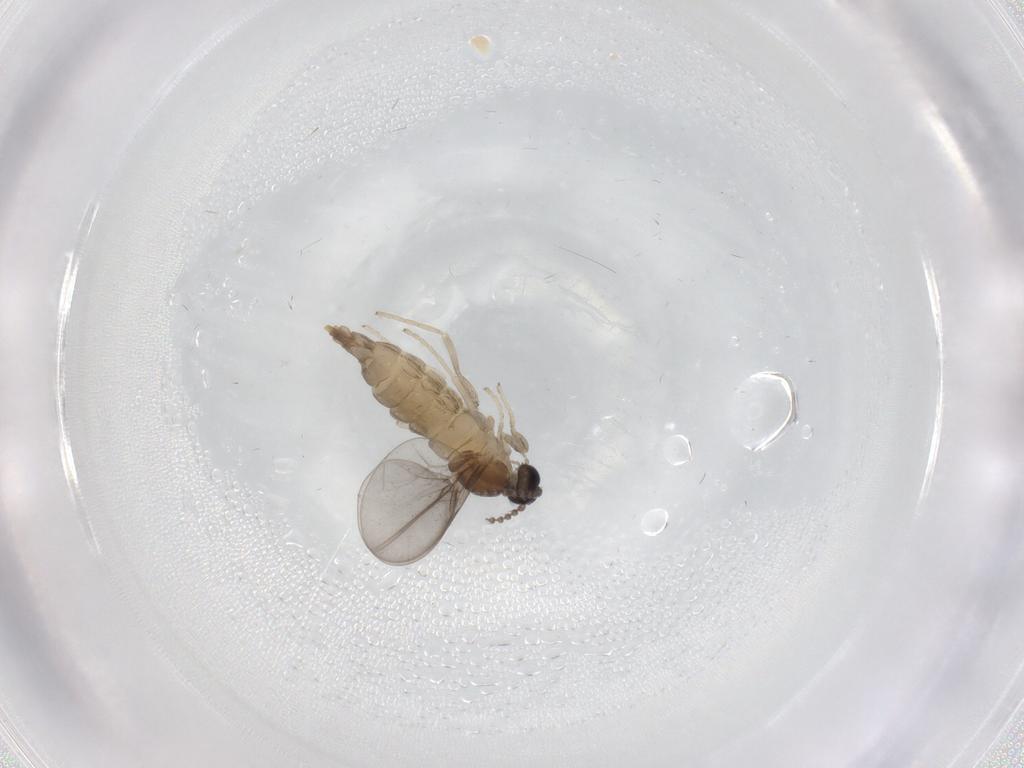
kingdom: Animalia
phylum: Arthropoda
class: Insecta
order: Diptera
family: Cecidomyiidae
